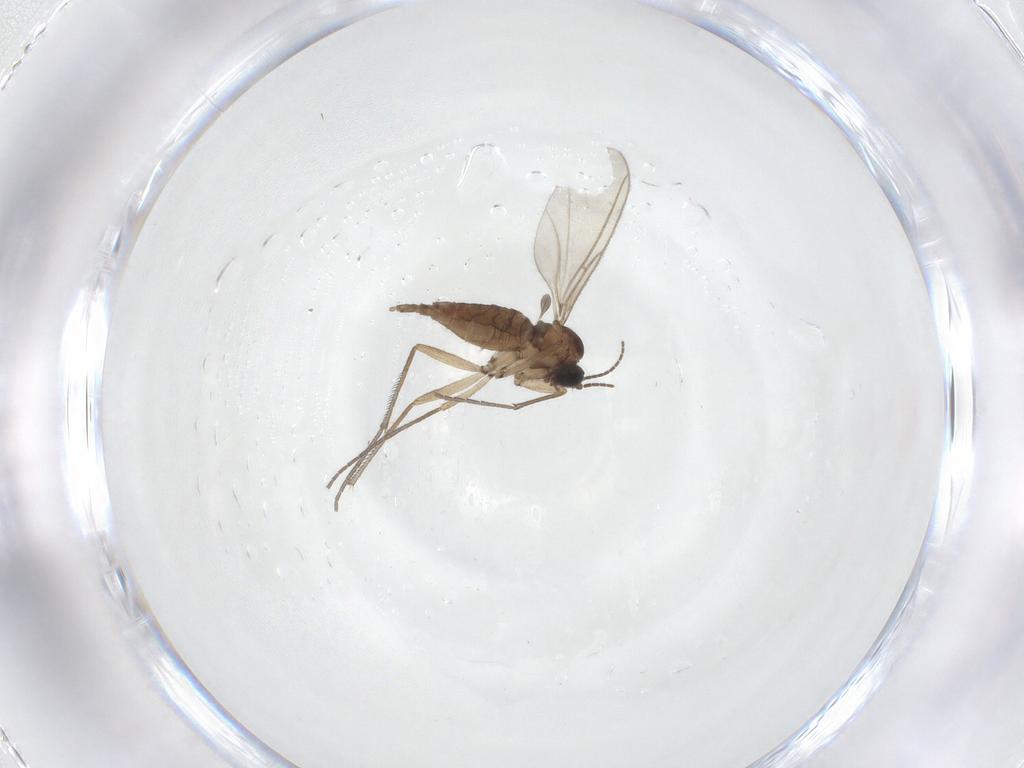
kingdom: Animalia
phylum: Arthropoda
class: Insecta
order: Diptera
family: Sciaridae
